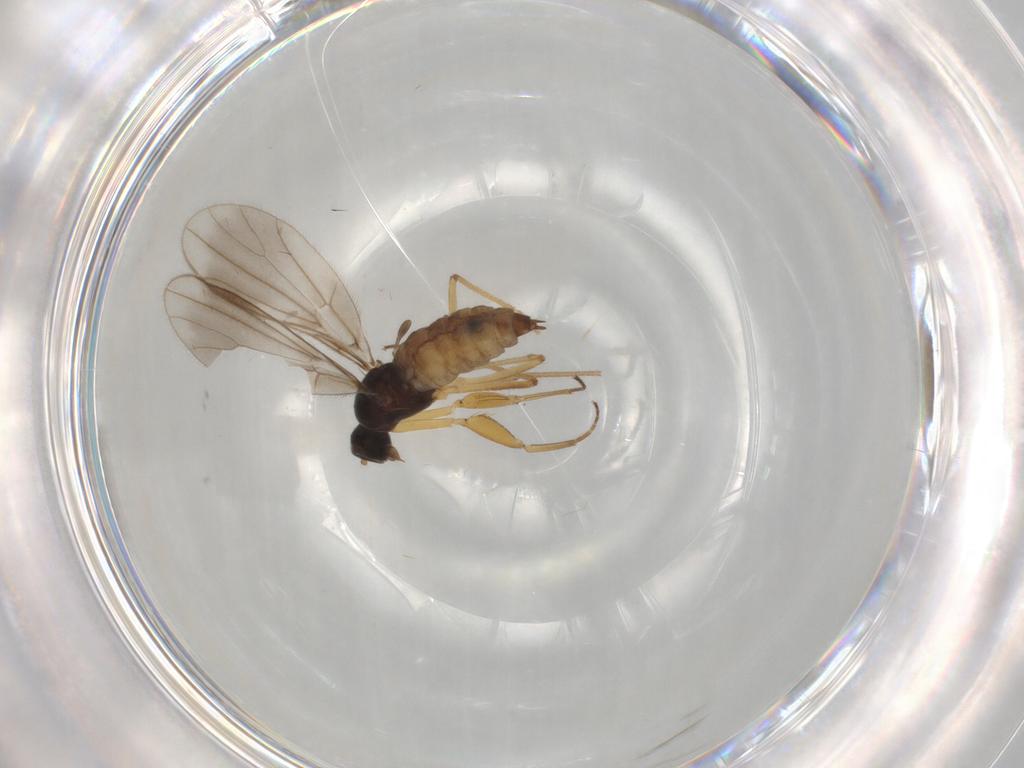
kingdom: Animalia
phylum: Arthropoda
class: Insecta
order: Diptera
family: Empididae
